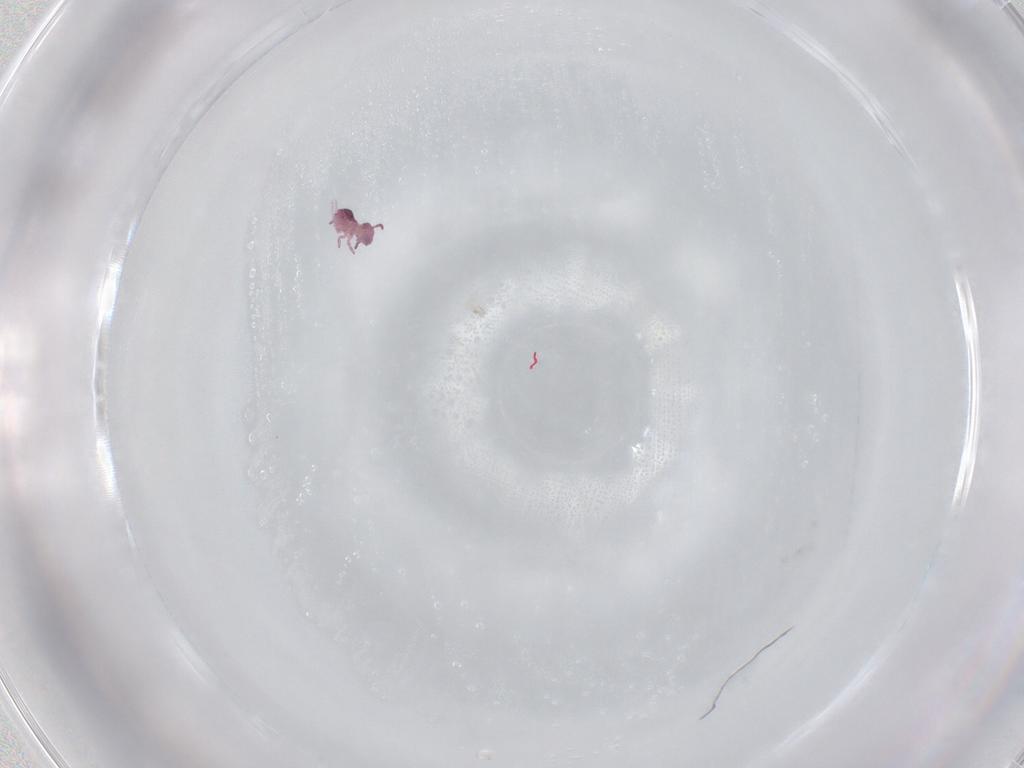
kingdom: Animalia
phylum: Arthropoda
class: Collembola
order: Symphypleona
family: Sminthurididae
